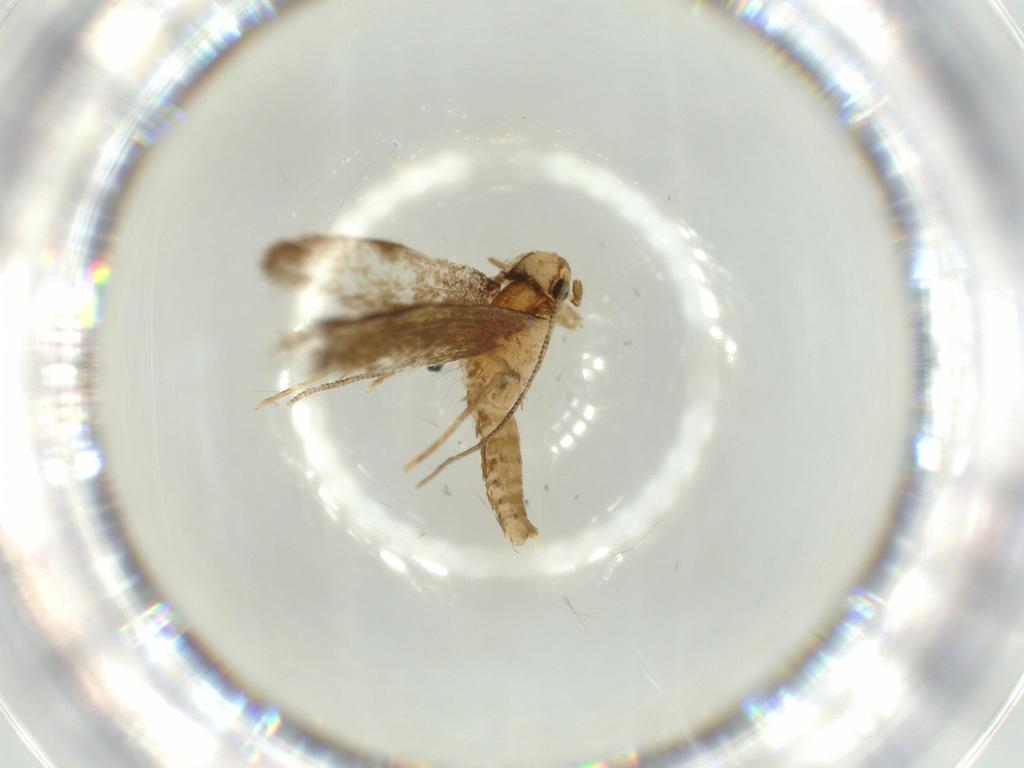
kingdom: Animalia
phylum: Arthropoda
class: Insecta
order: Lepidoptera
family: Tineidae
